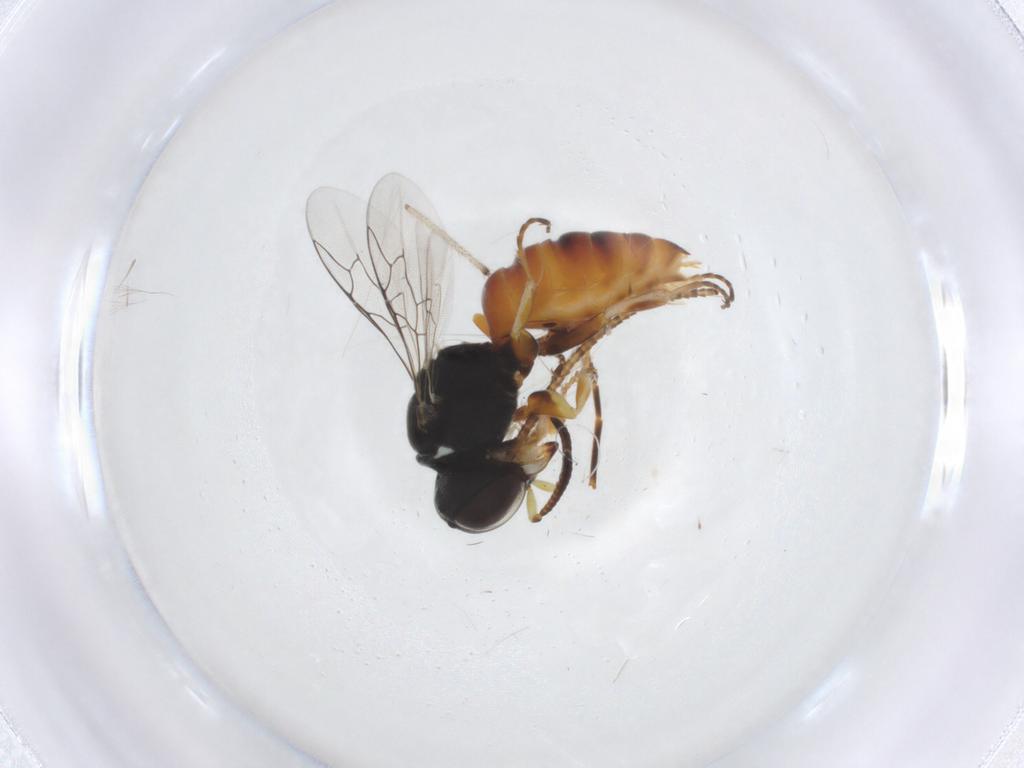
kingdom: Animalia
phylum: Arthropoda
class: Insecta
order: Hymenoptera
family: Crabronidae
